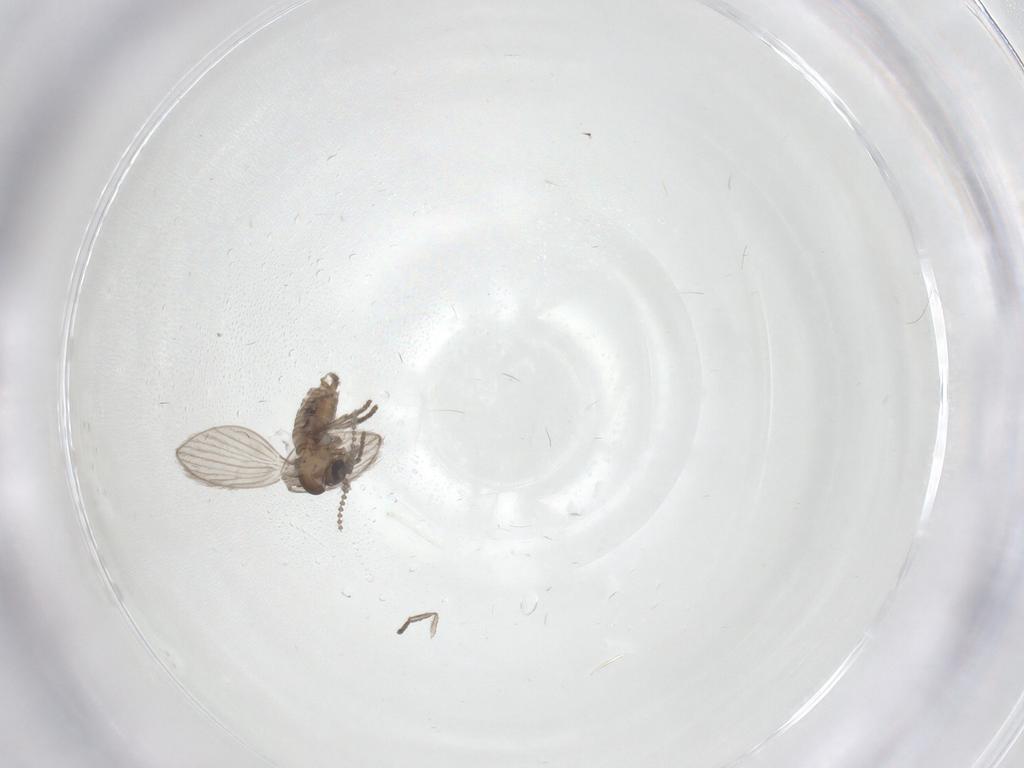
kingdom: Animalia
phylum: Arthropoda
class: Insecta
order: Diptera
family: Psychodidae
